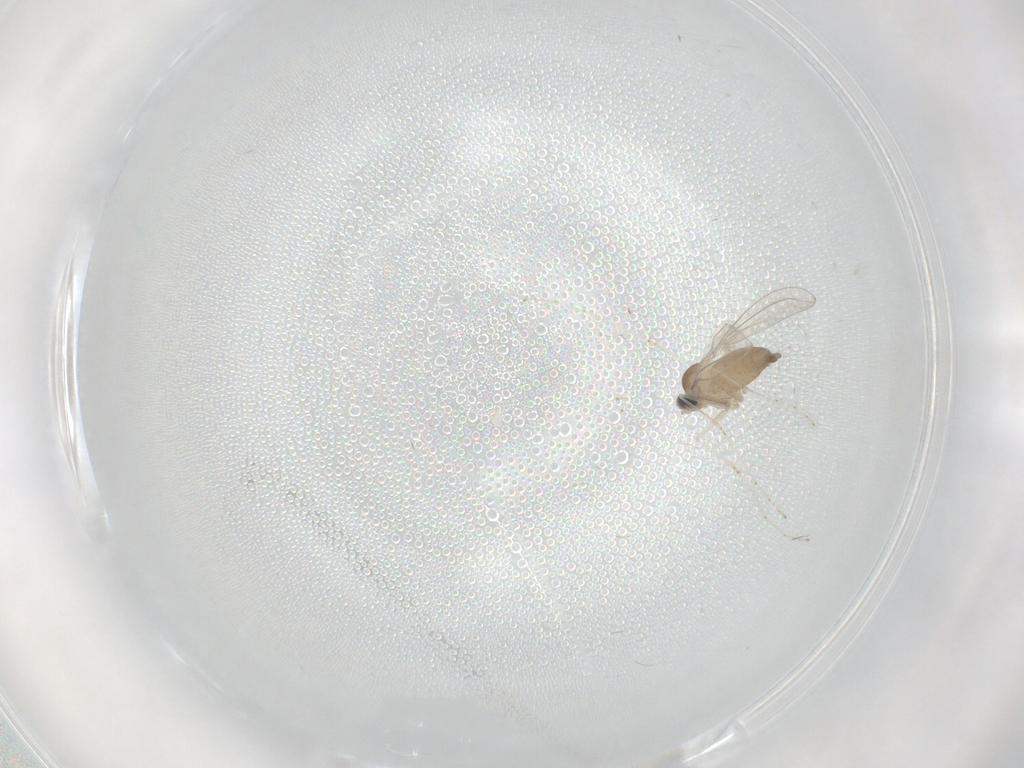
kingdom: Animalia
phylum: Arthropoda
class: Insecta
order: Diptera
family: Cecidomyiidae
